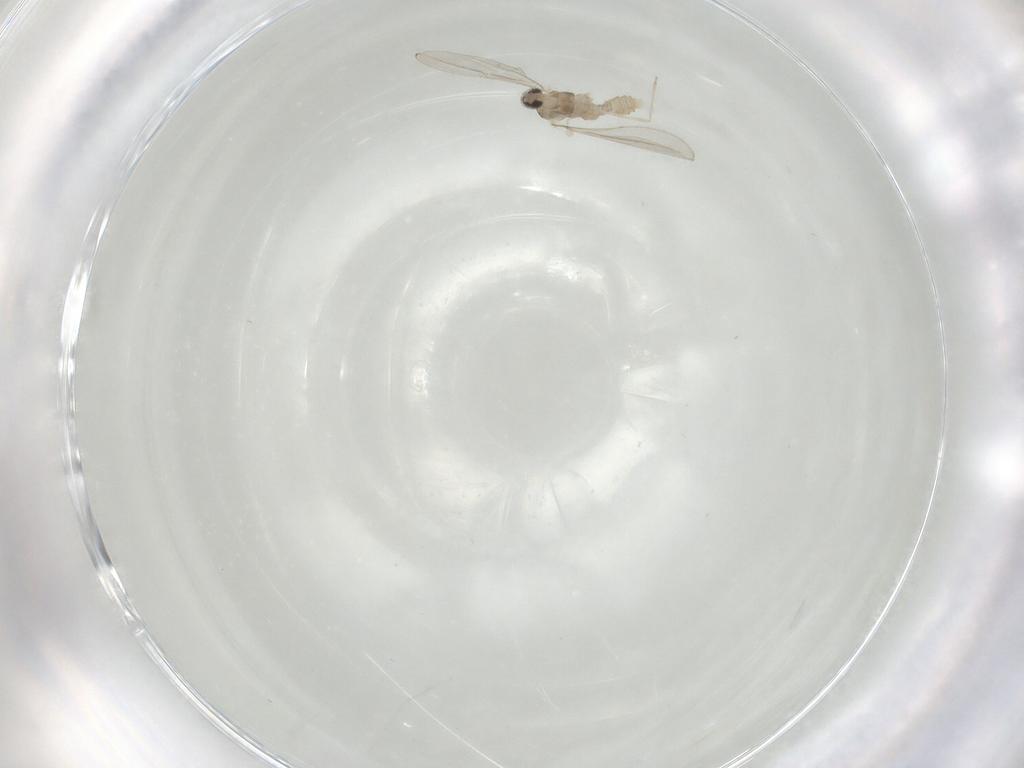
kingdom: Animalia
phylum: Arthropoda
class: Insecta
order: Diptera
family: Cecidomyiidae
